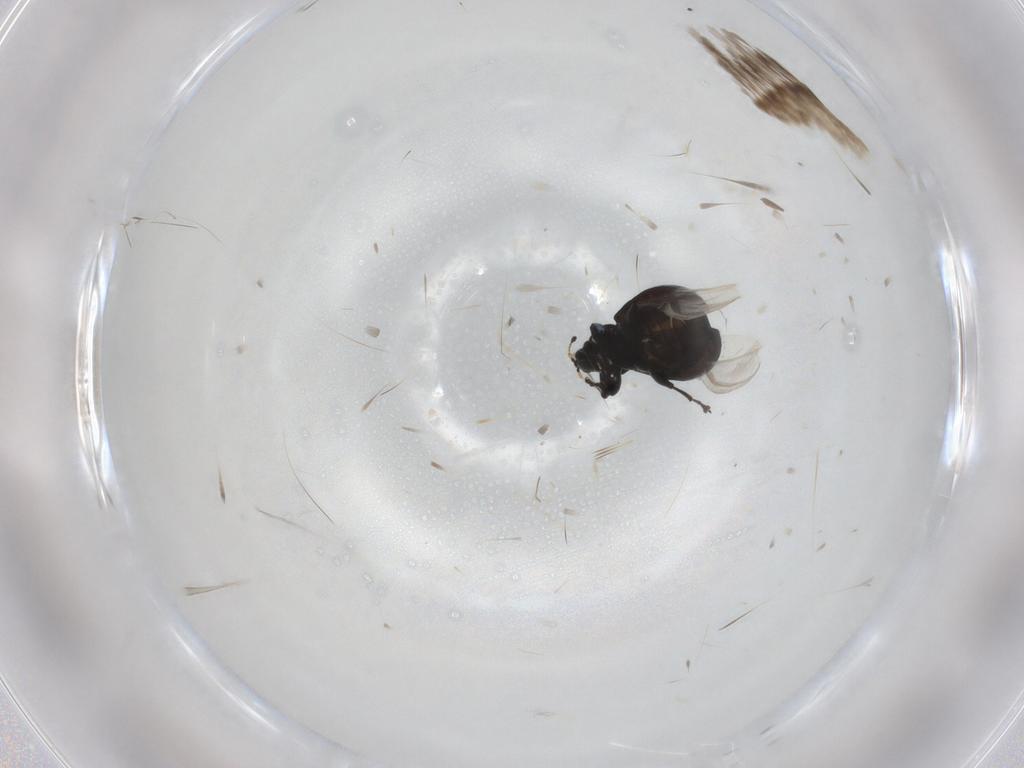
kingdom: Animalia
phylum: Arthropoda
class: Insecta
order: Coleoptera
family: Curculionidae
